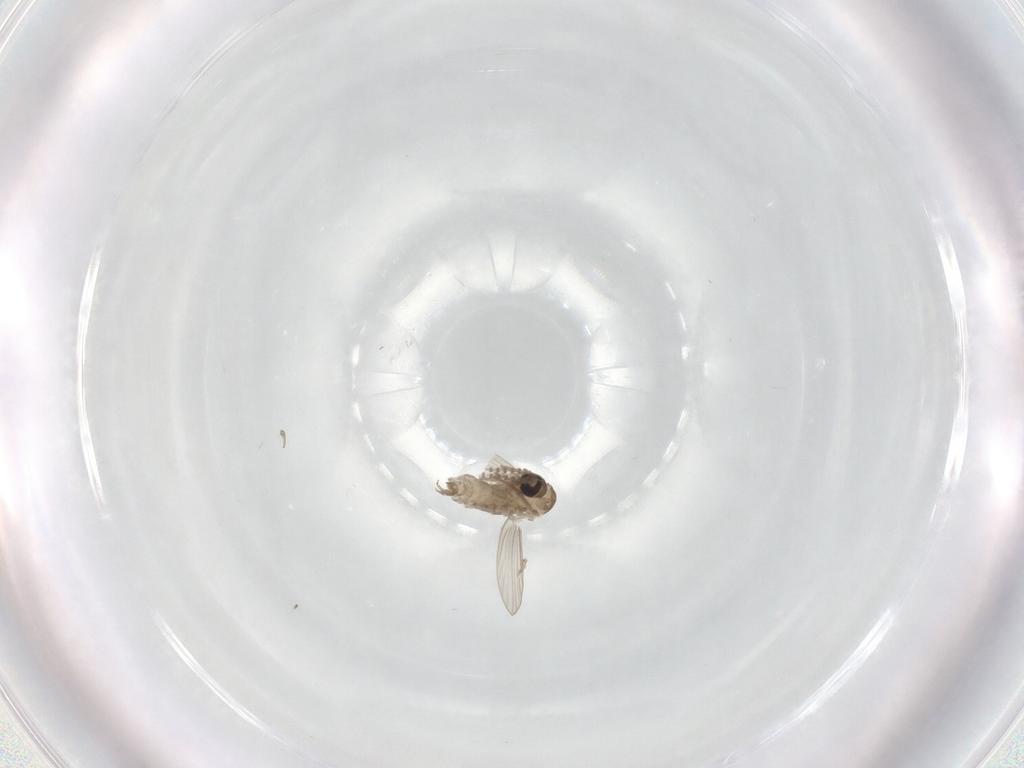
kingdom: Animalia
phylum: Arthropoda
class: Insecta
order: Diptera
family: Psychodidae
